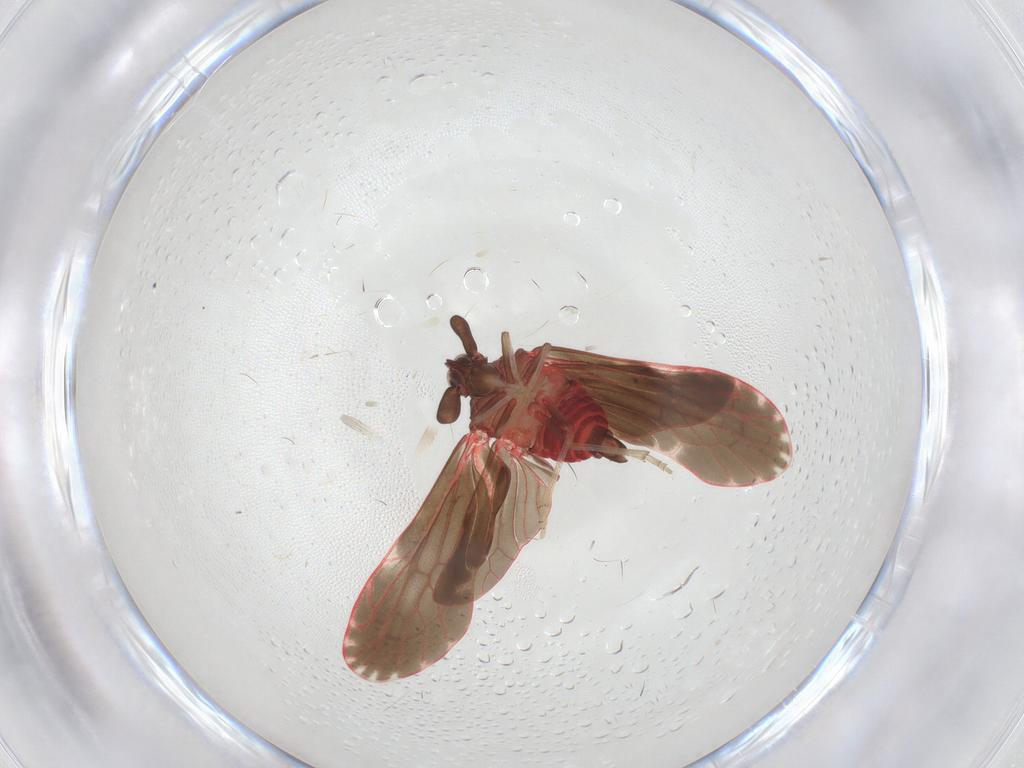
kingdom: Animalia
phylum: Arthropoda
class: Insecta
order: Hemiptera
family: Derbidae
